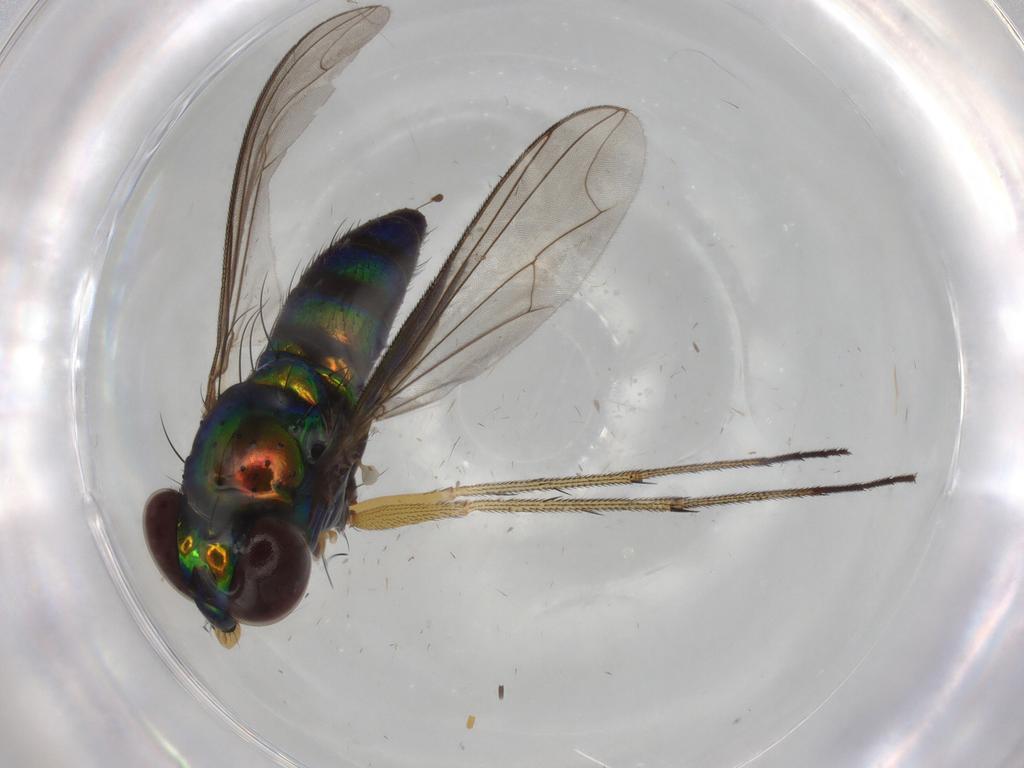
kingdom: Animalia
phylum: Arthropoda
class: Insecta
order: Diptera
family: Dolichopodidae
